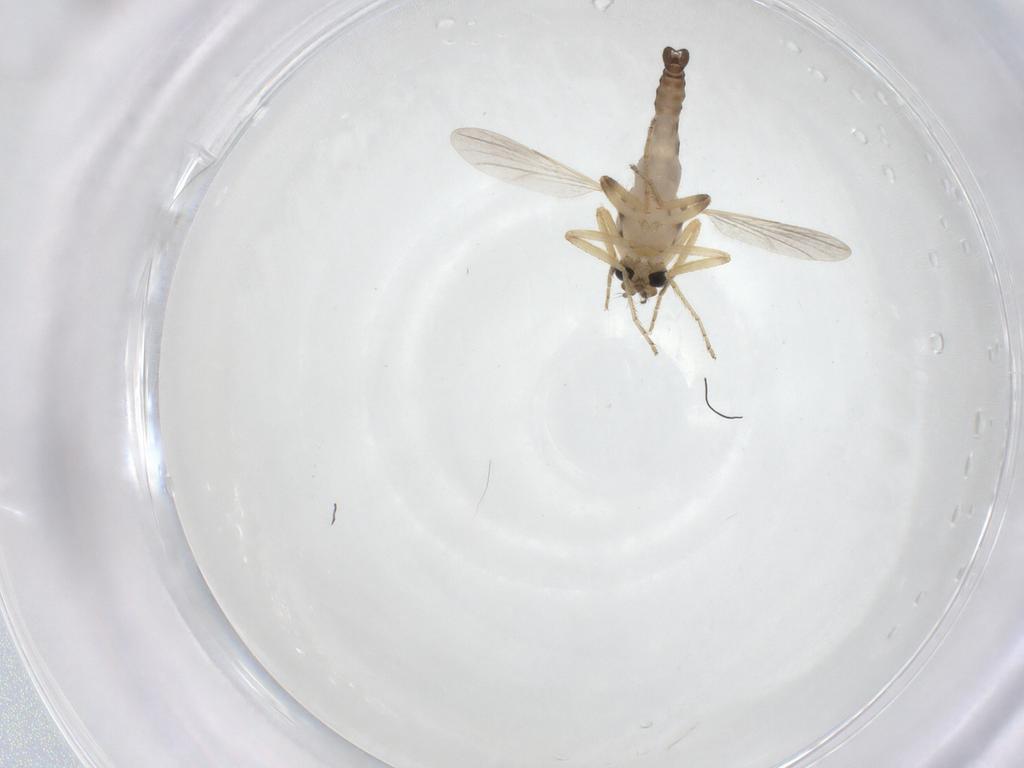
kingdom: Animalia
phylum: Arthropoda
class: Insecta
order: Diptera
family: Ceratopogonidae
